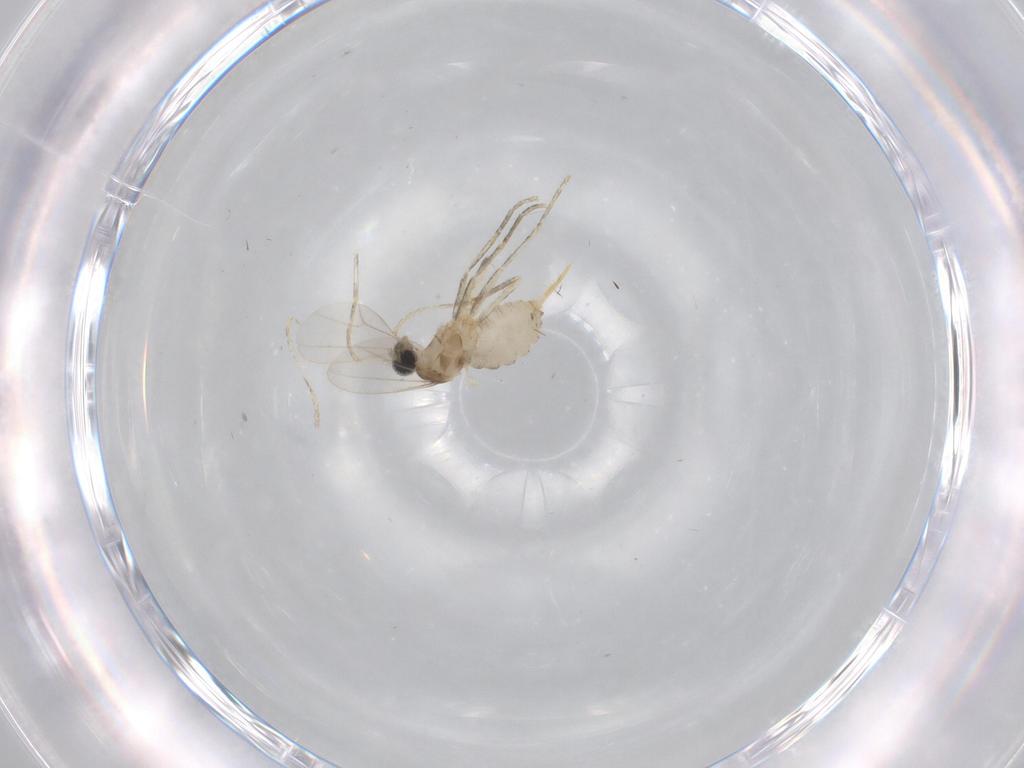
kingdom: Animalia
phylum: Arthropoda
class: Insecta
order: Diptera
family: Cecidomyiidae
